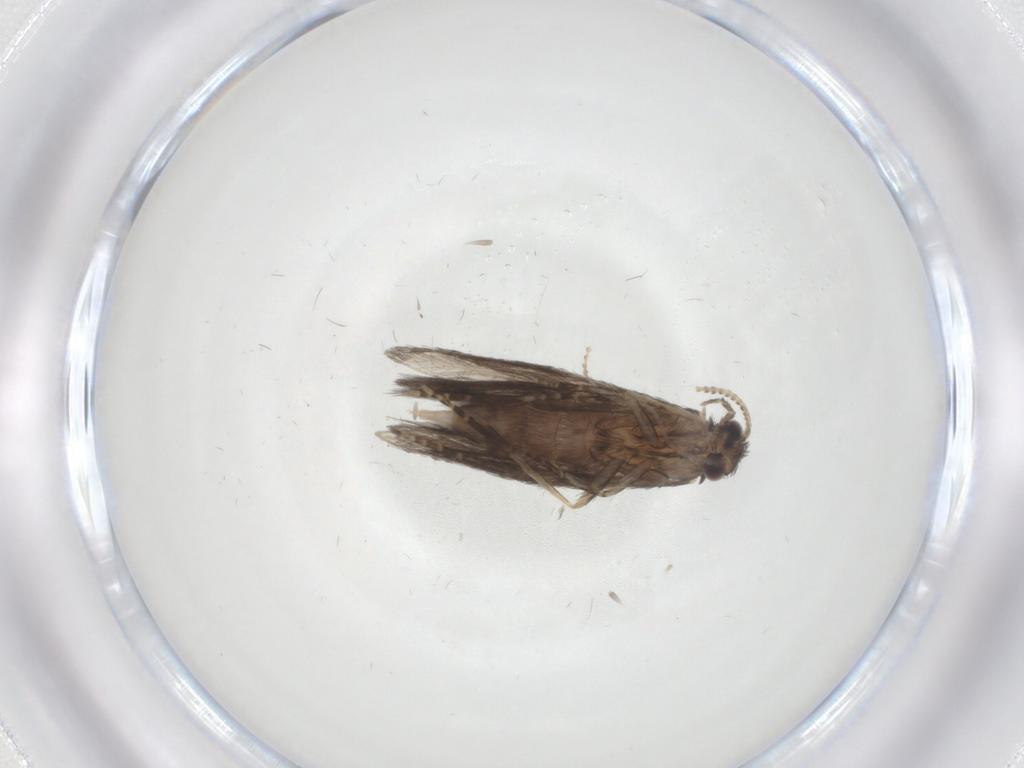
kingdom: Animalia
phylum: Arthropoda
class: Insecta
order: Trichoptera
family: Hydroptilidae
